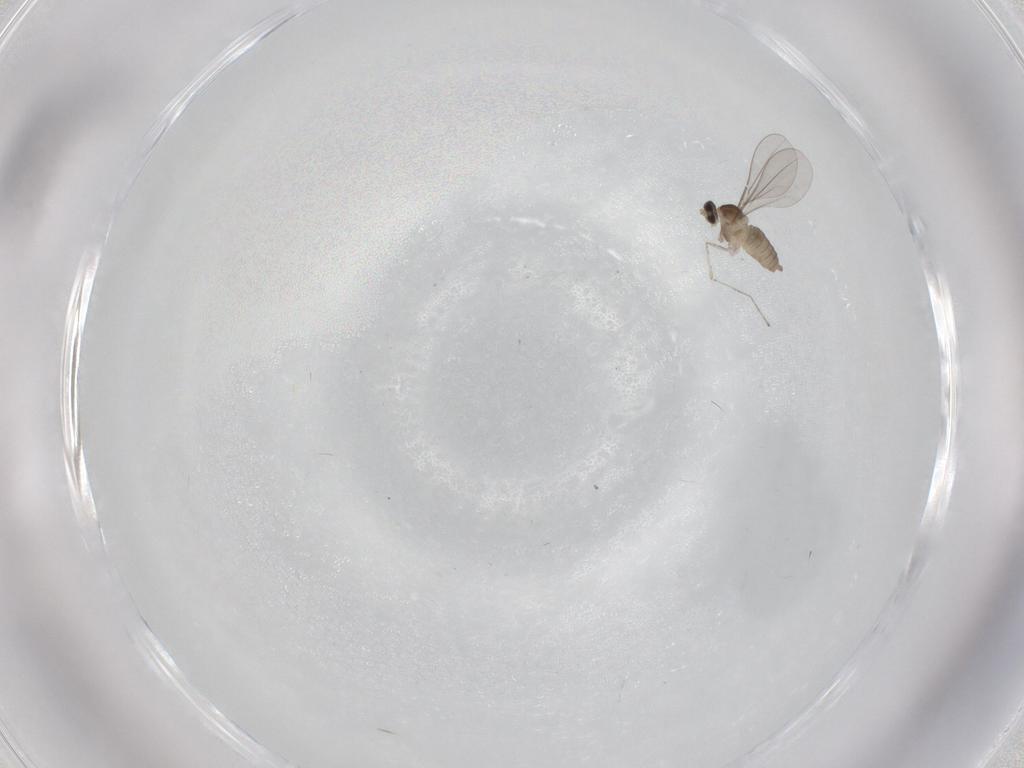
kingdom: Animalia
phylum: Arthropoda
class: Insecta
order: Diptera
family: Cecidomyiidae
